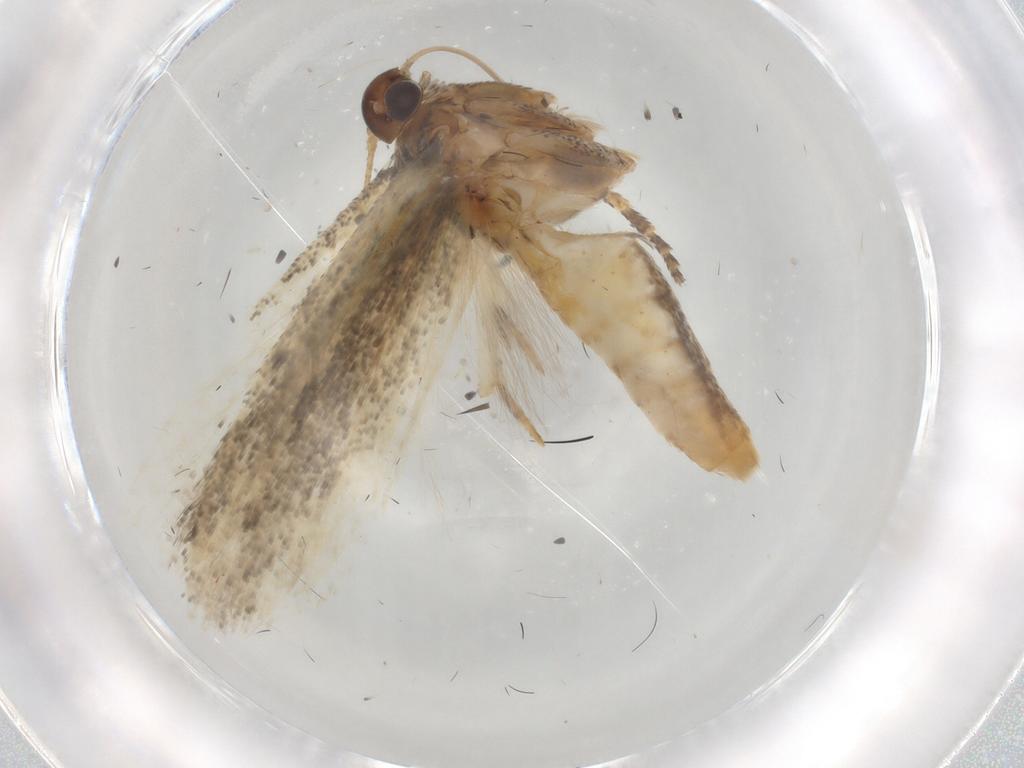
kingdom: Animalia
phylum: Arthropoda
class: Insecta
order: Lepidoptera
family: Gelechiidae
